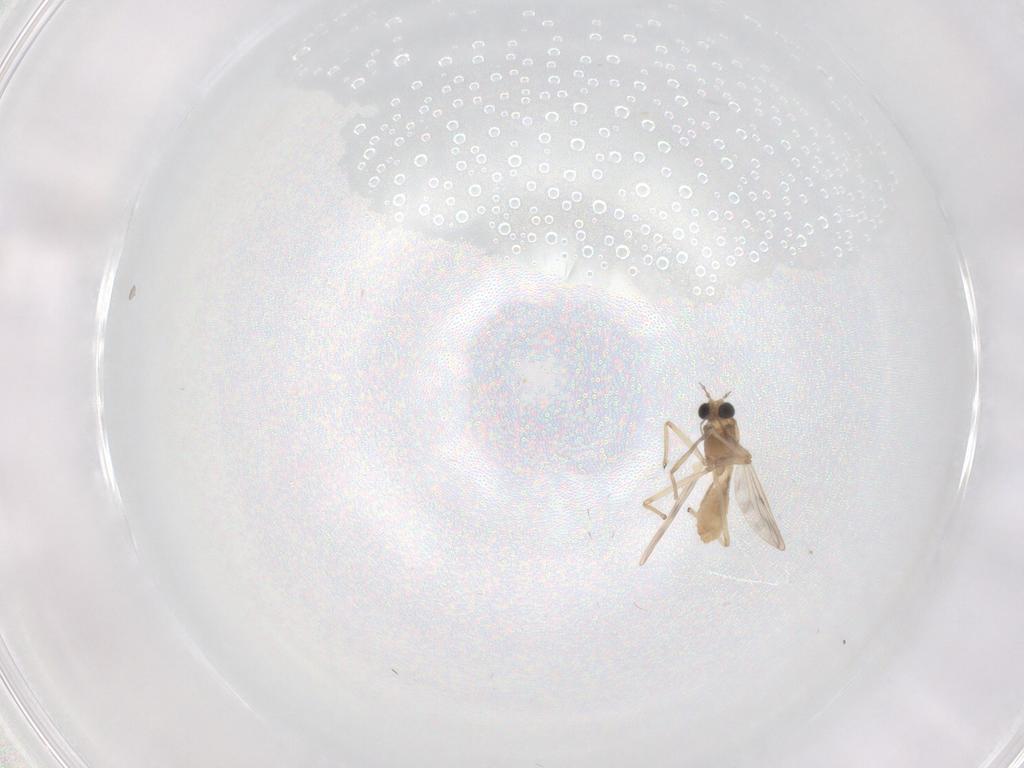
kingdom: Animalia
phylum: Arthropoda
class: Insecta
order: Diptera
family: Chironomidae
